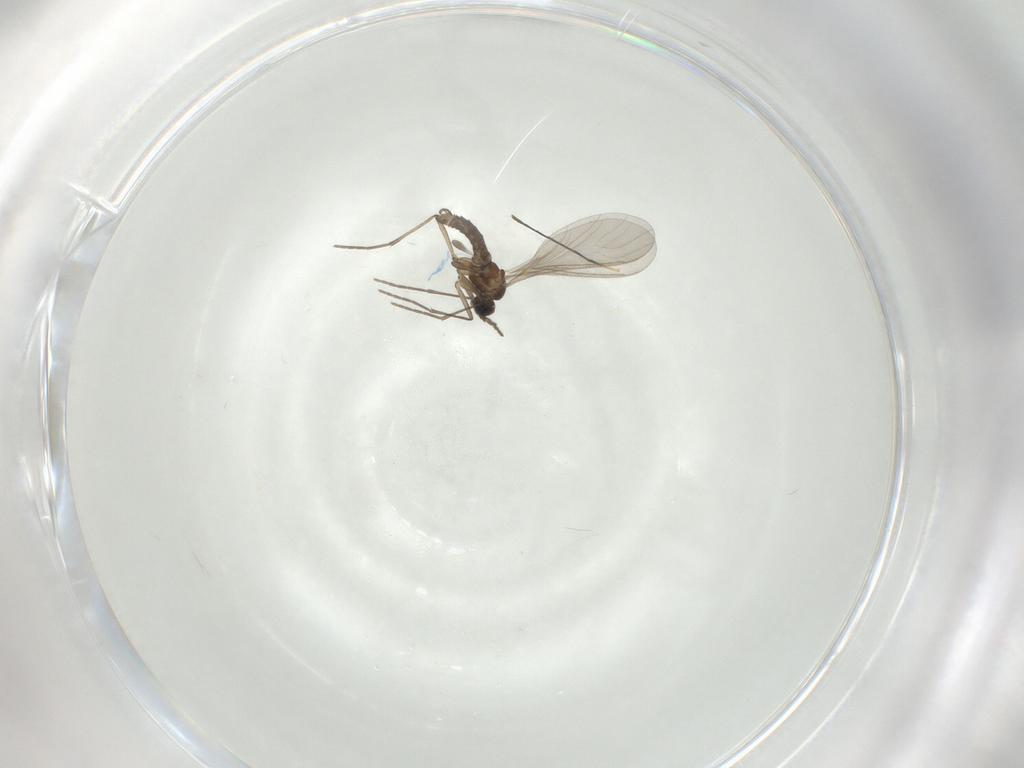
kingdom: Animalia
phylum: Arthropoda
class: Insecta
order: Diptera
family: Sciaridae
